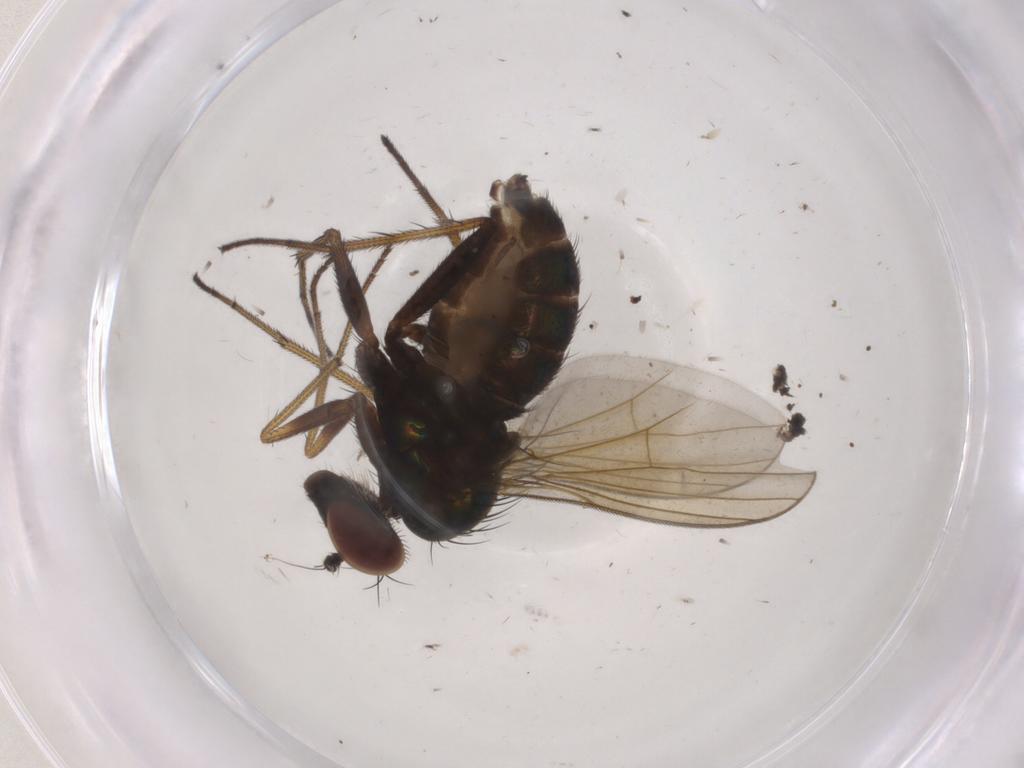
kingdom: Animalia
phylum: Arthropoda
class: Insecta
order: Diptera
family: Dolichopodidae
